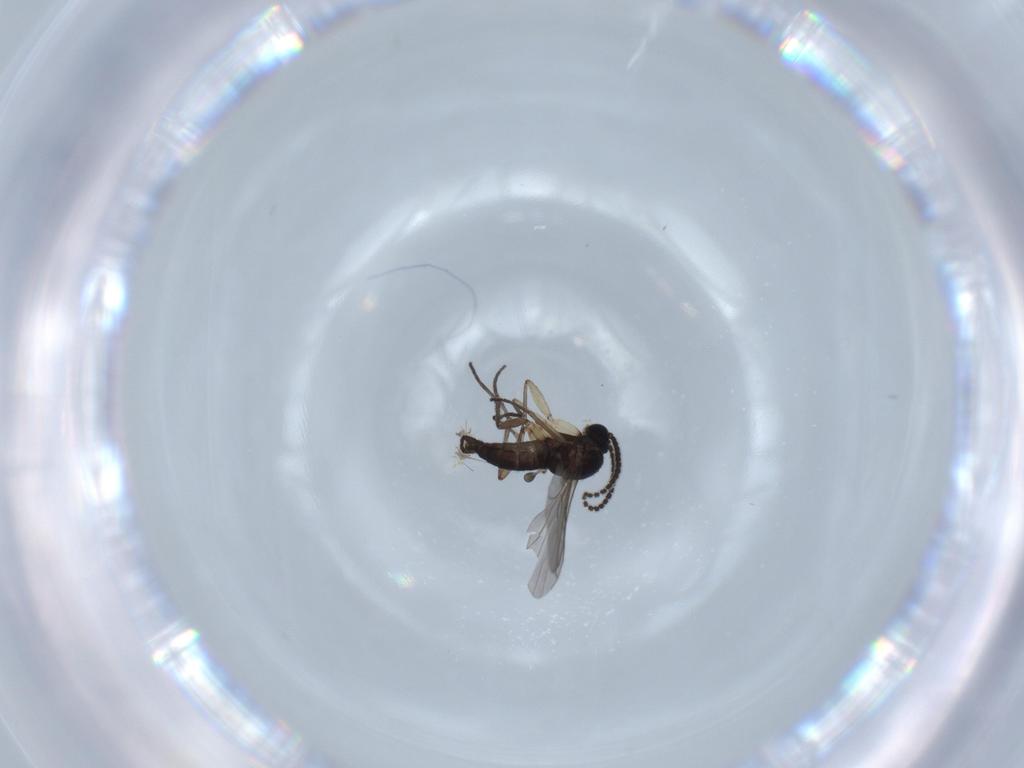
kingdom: Animalia
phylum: Arthropoda
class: Insecta
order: Diptera
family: Sciaridae
